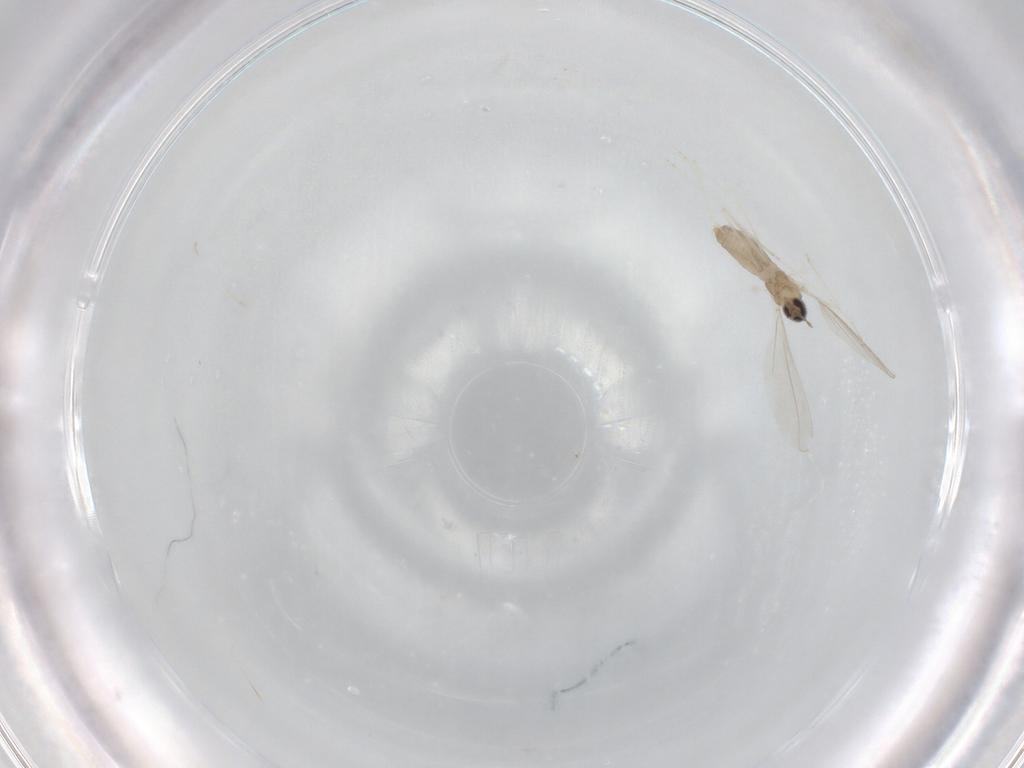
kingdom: Animalia
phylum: Arthropoda
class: Insecta
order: Diptera
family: Cecidomyiidae
